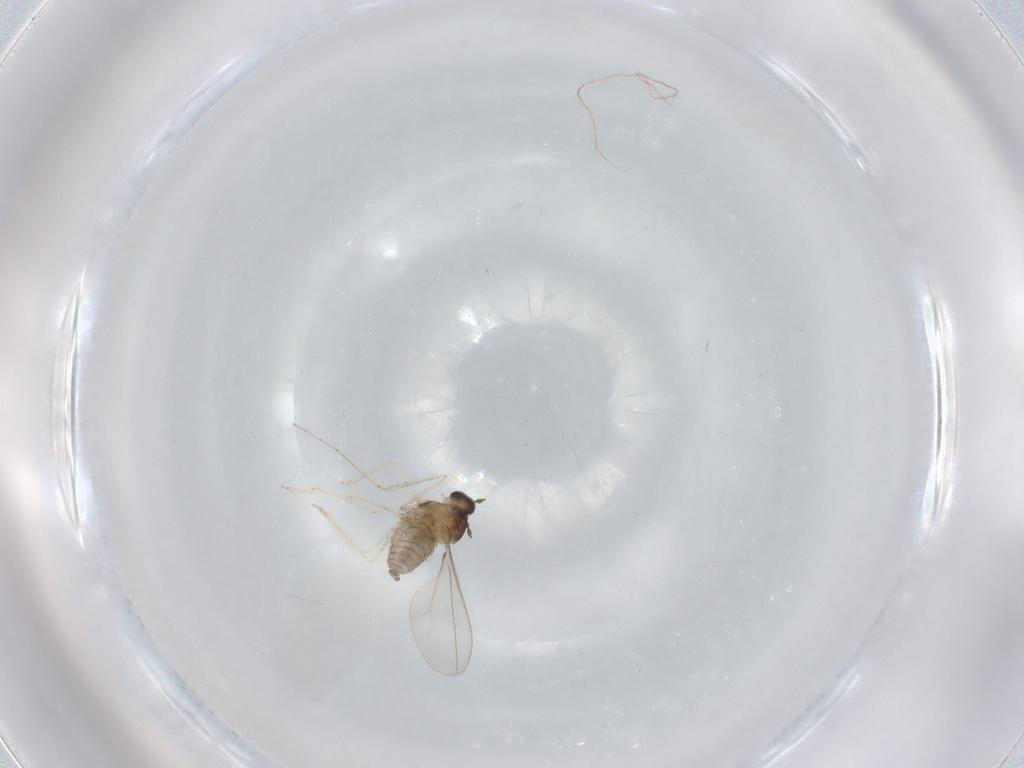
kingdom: Animalia
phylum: Arthropoda
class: Insecta
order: Diptera
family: Cecidomyiidae
